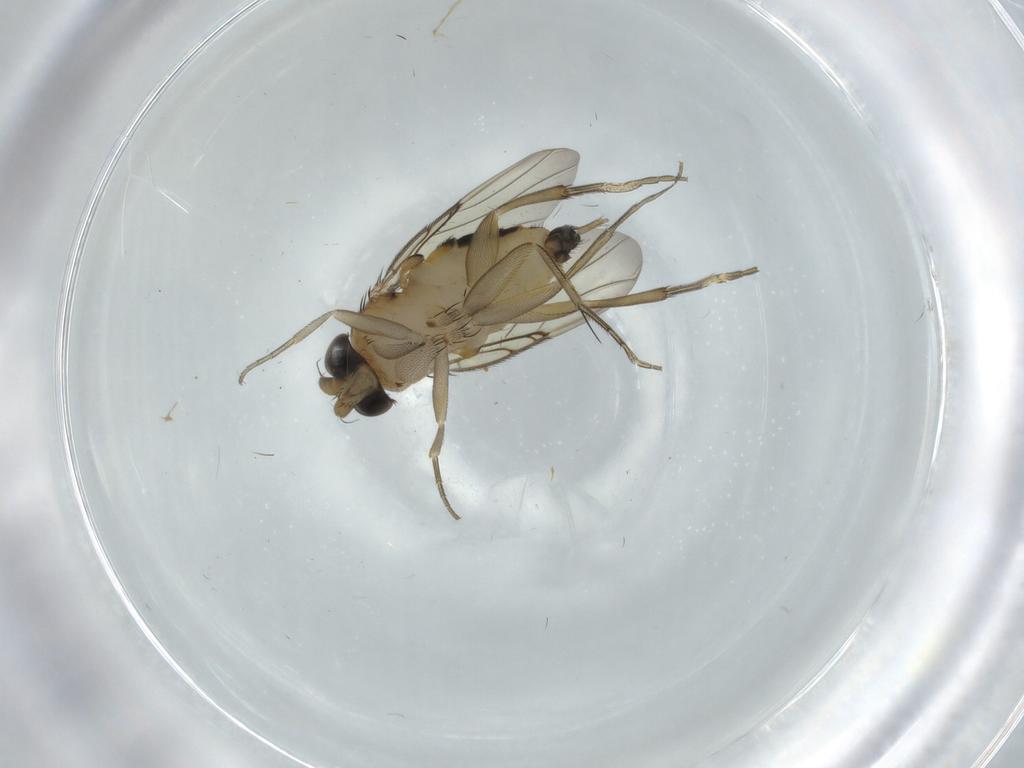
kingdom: Animalia
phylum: Arthropoda
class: Insecta
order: Diptera
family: Phoridae
